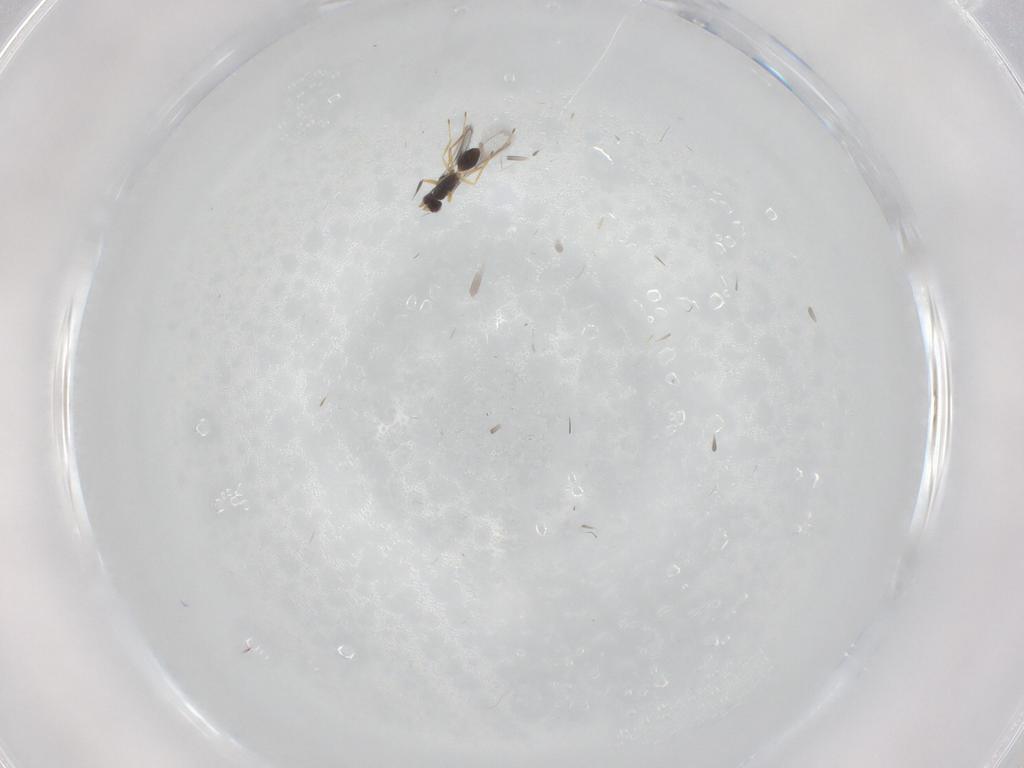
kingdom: Animalia
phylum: Arthropoda
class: Insecta
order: Hymenoptera
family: Mymaridae
